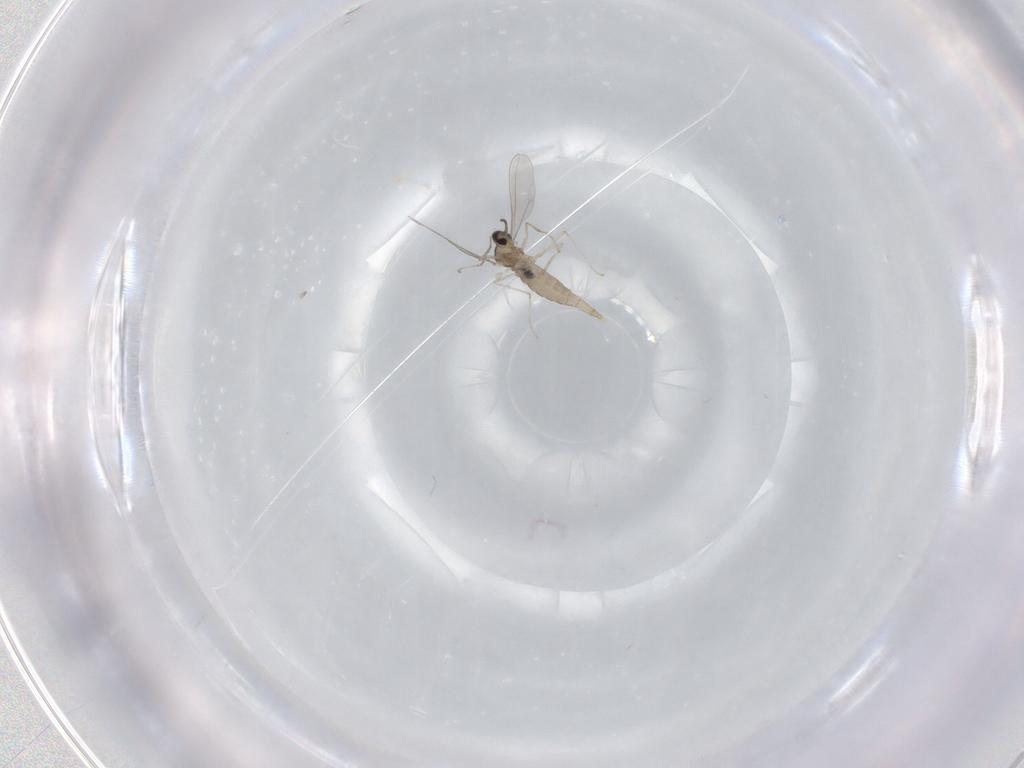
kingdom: Animalia
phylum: Arthropoda
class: Insecta
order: Diptera
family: Dolichopodidae
